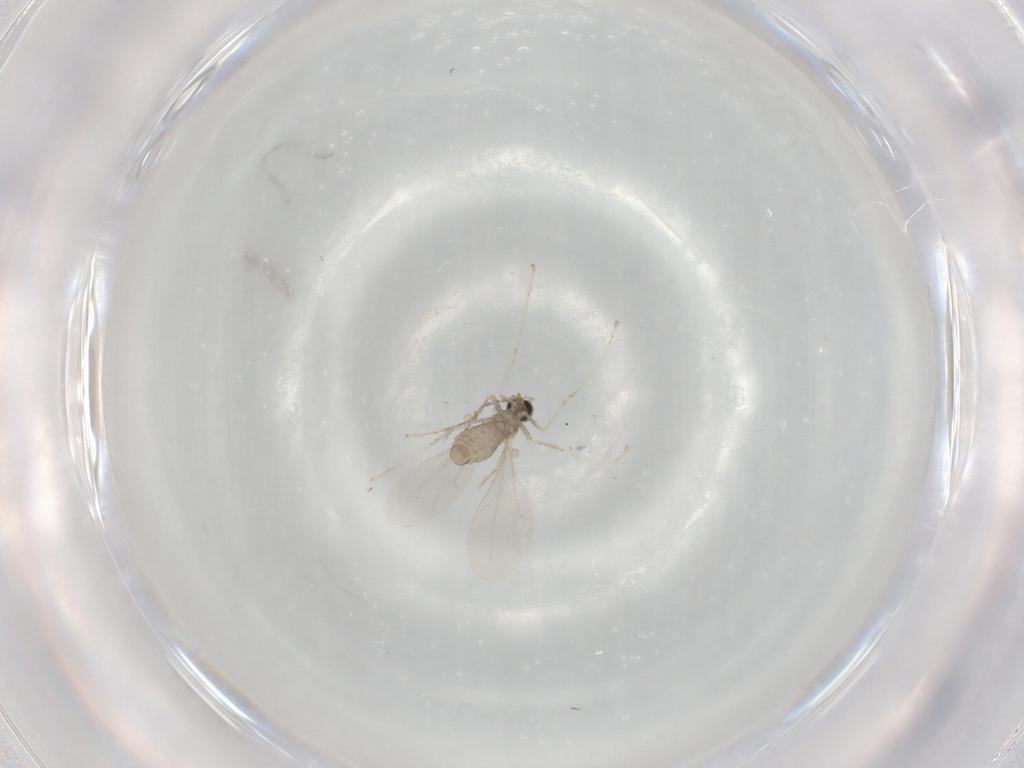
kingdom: Animalia
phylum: Arthropoda
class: Insecta
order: Diptera
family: Cecidomyiidae
